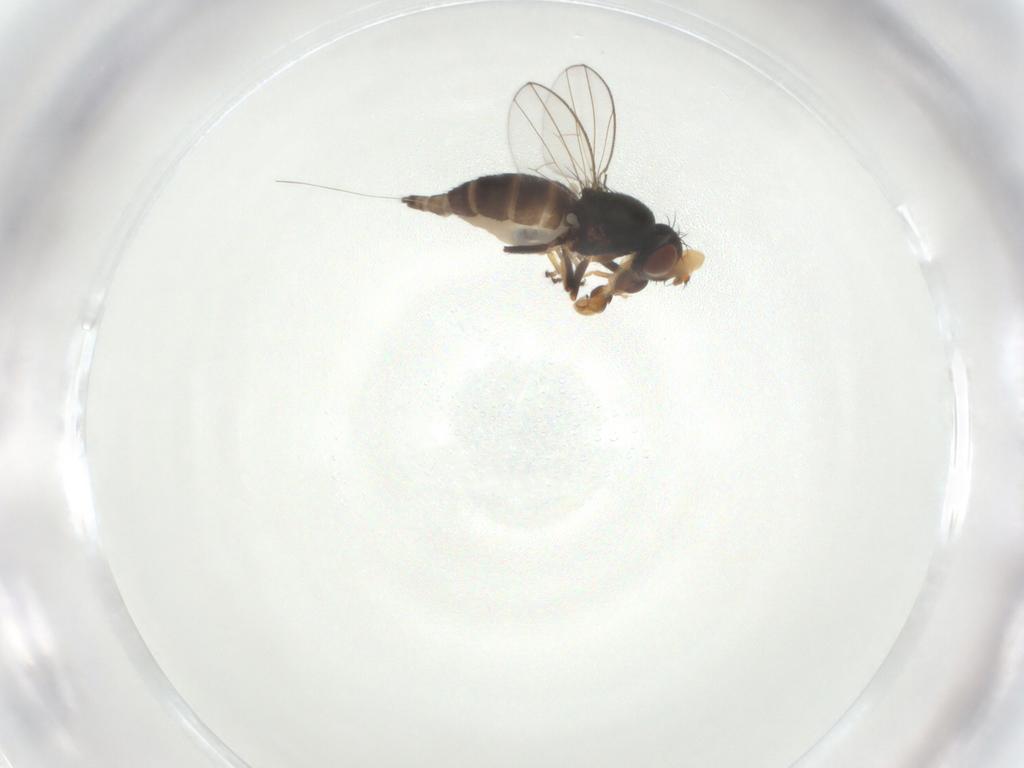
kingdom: Animalia
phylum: Arthropoda
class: Insecta
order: Diptera
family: Ephydridae
